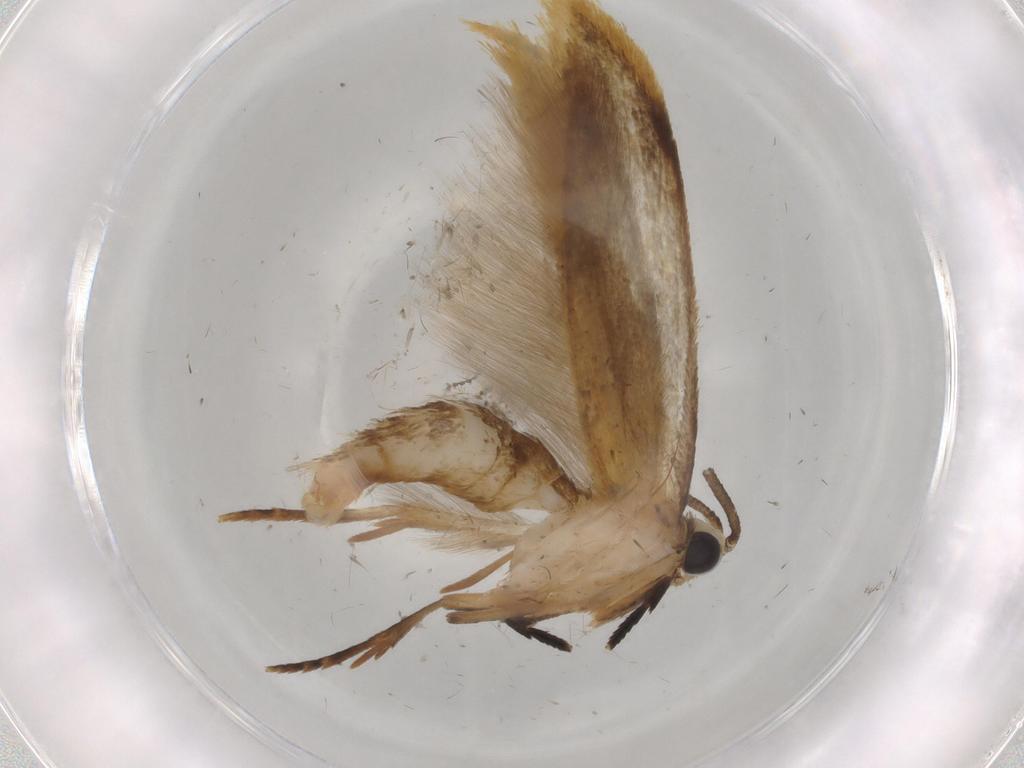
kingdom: Animalia
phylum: Arthropoda
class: Insecta
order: Lepidoptera
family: Tineidae
